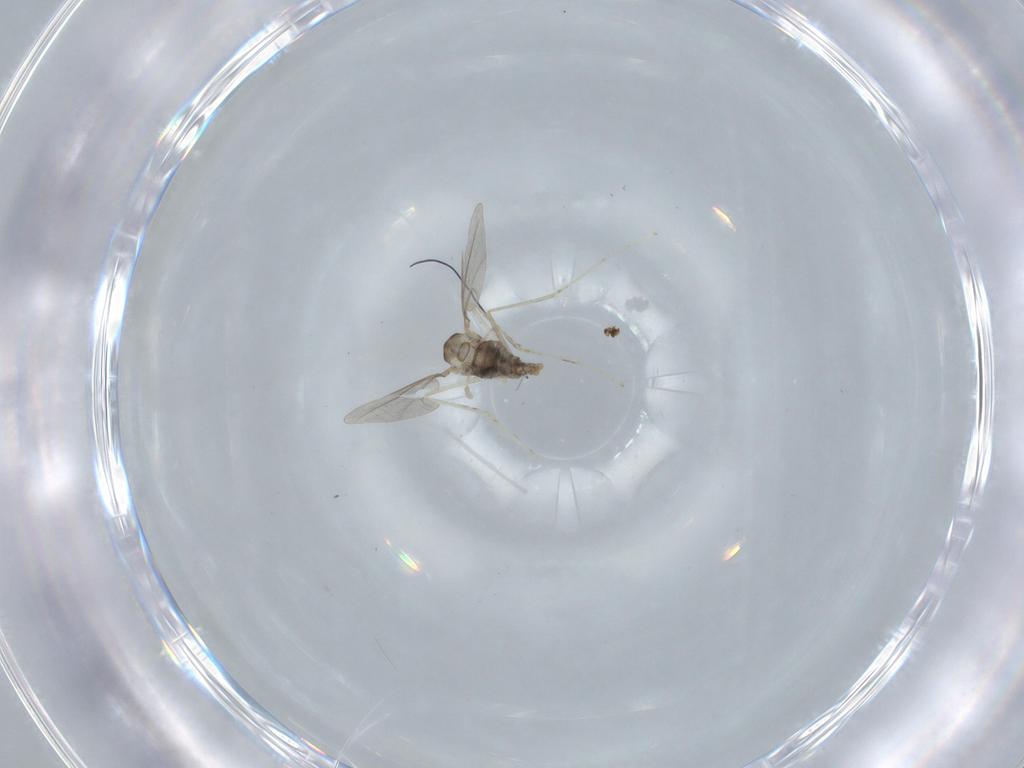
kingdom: Animalia
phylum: Arthropoda
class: Insecta
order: Diptera
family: Cecidomyiidae
